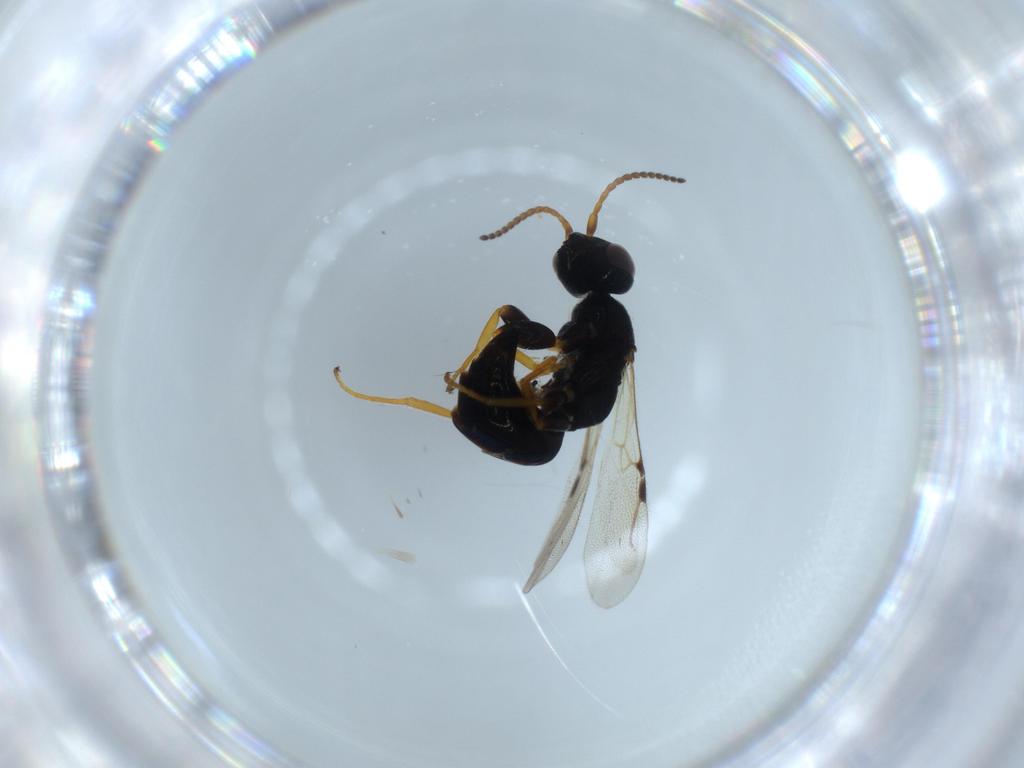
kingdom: Animalia
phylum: Arthropoda
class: Insecta
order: Hymenoptera
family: Bethylidae
